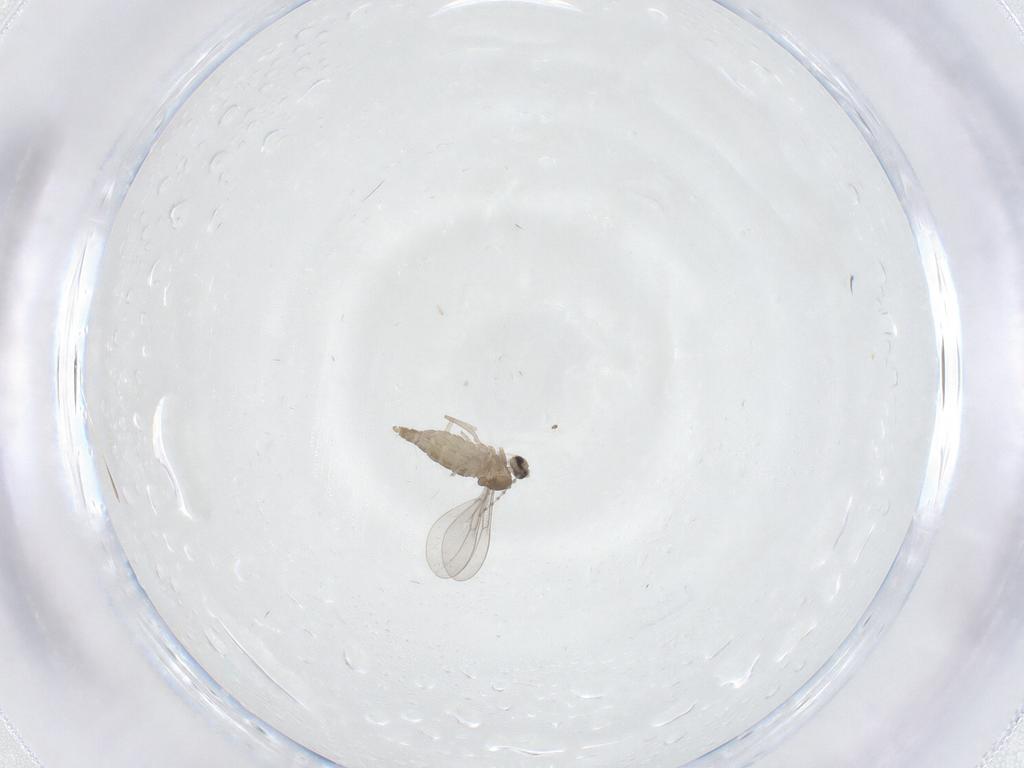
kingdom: Animalia
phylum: Arthropoda
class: Insecta
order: Diptera
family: Cecidomyiidae
